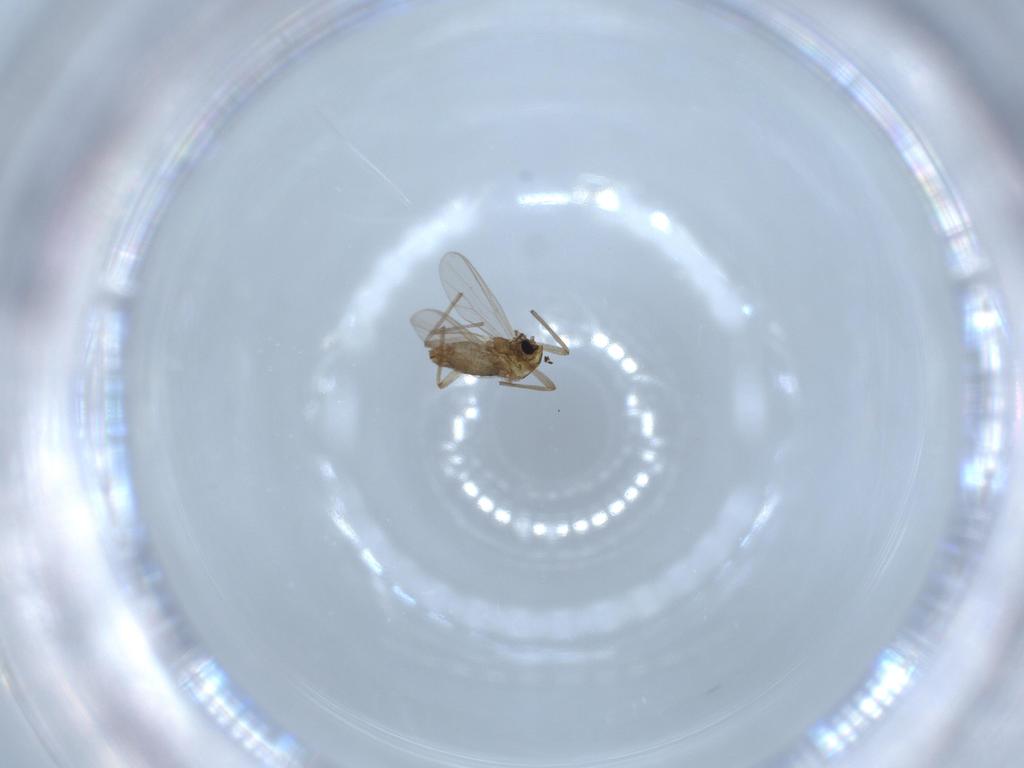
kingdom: Animalia
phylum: Arthropoda
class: Insecta
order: Diptera
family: Chironomidae
